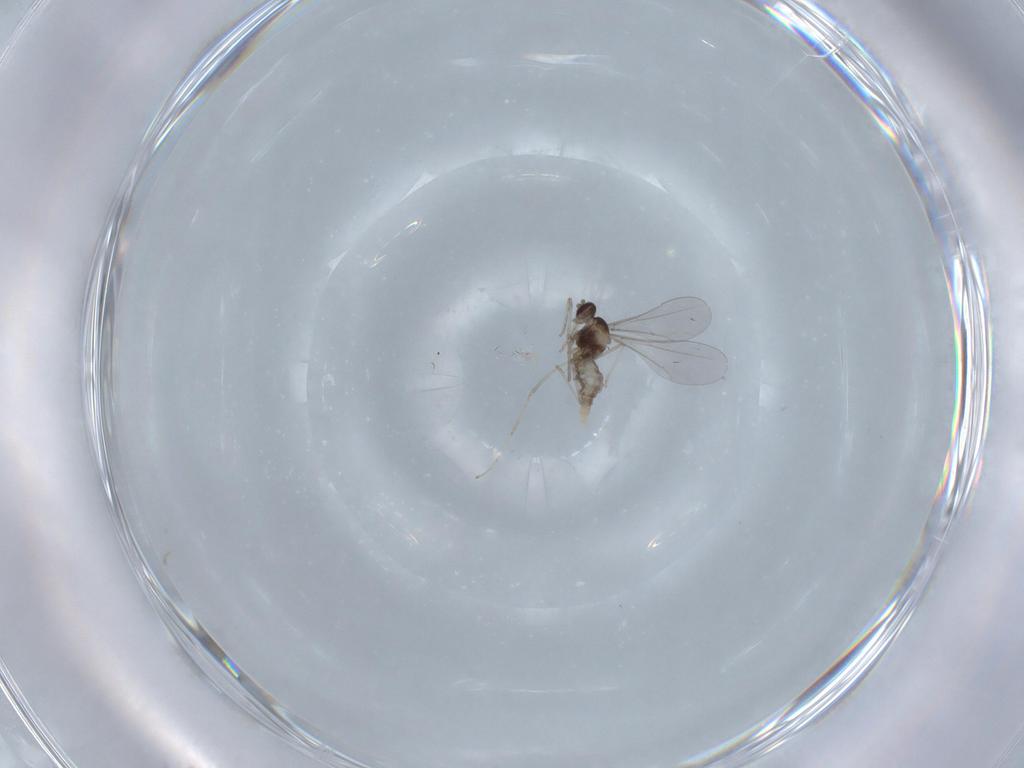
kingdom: Animalia
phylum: Arthropoda
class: Insecta
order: Diptera
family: Cecidomyiidae
